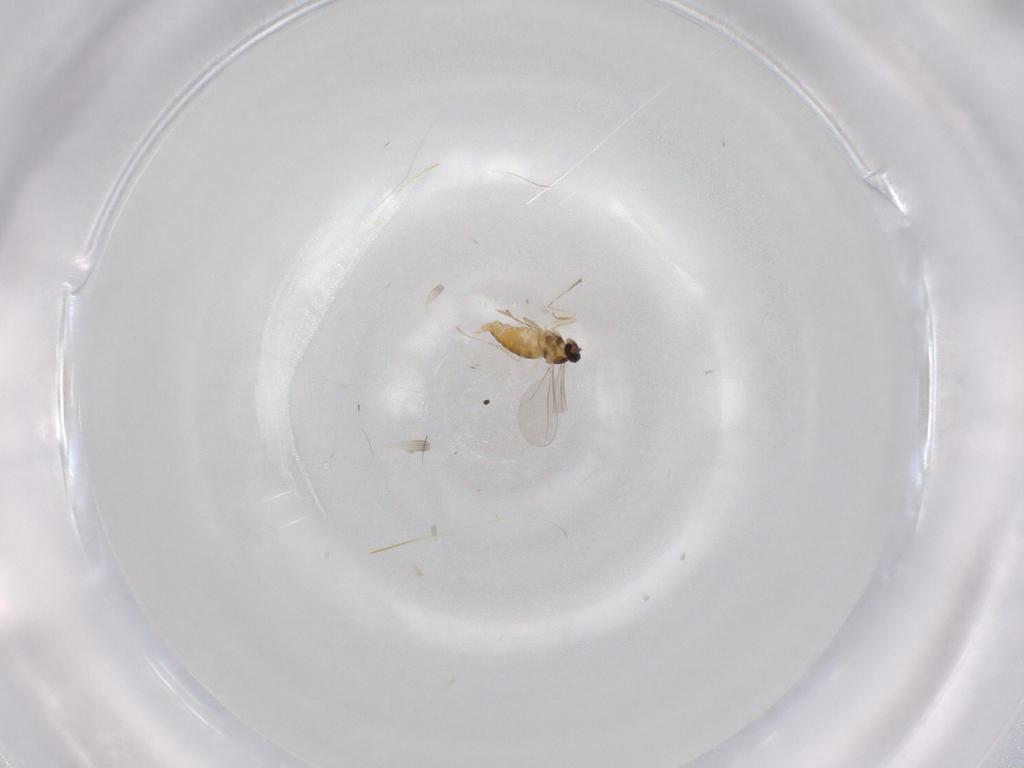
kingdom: Animalia
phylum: Arthropoda
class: Insecta
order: Diptera
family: Cecidomyiidae
